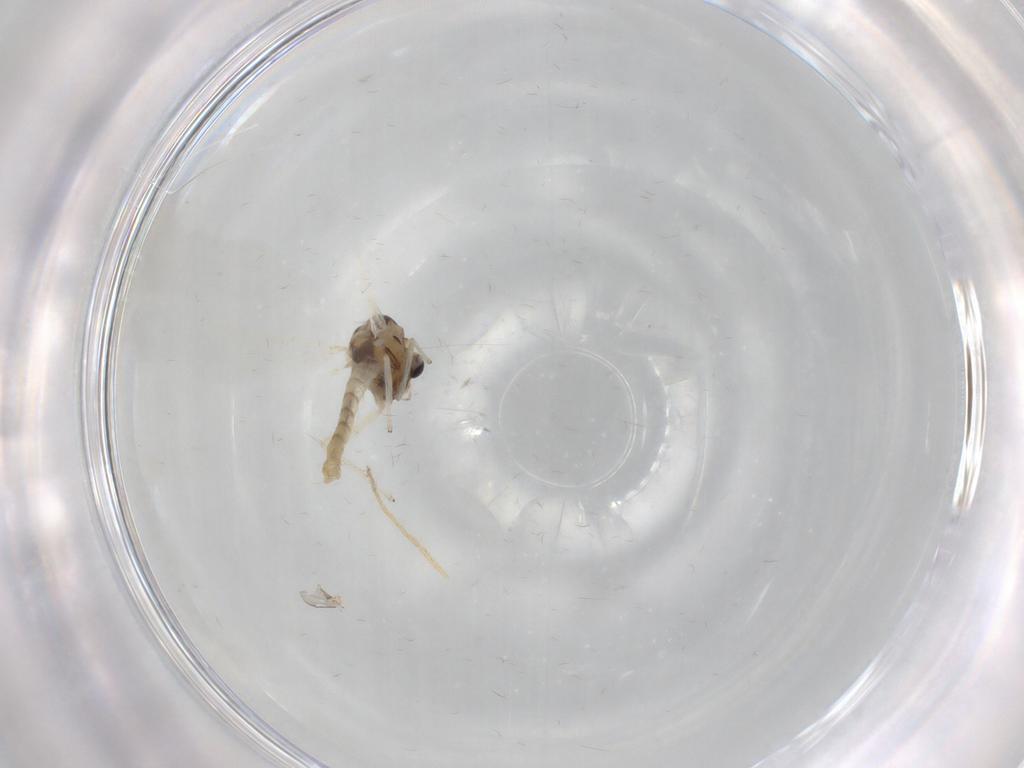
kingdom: Animalia
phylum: Arthropoda
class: Insecta
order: Diptera
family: Chironomidae
